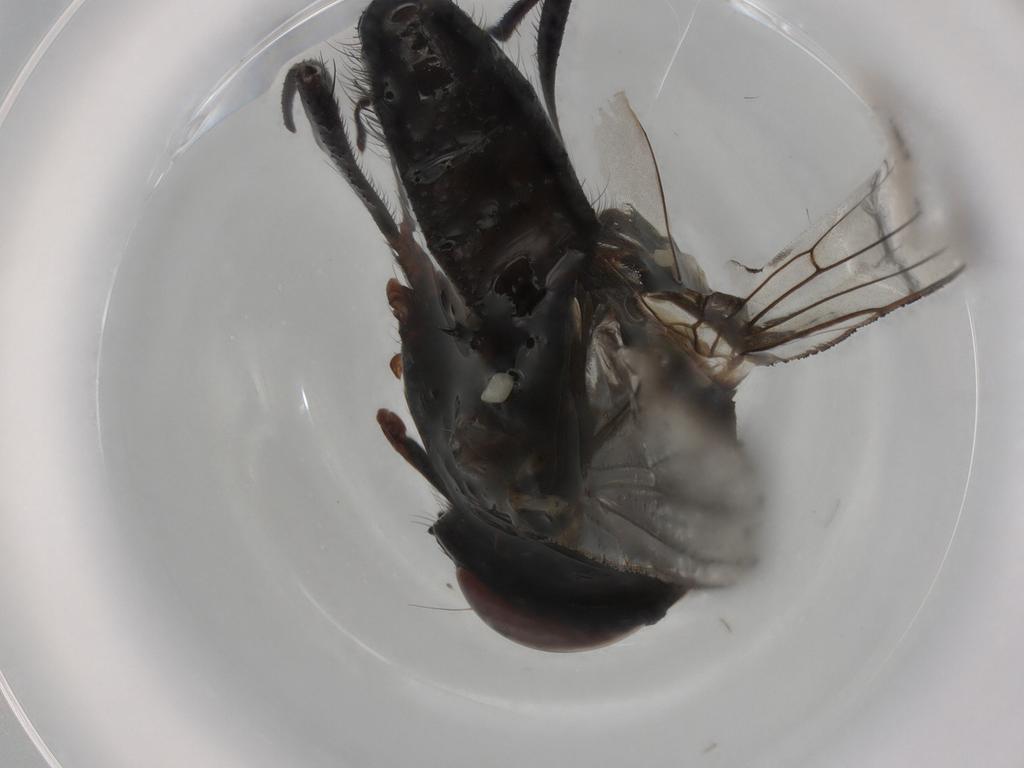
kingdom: Animalia
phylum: Arthropoda
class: Insecta
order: Diptera
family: Anthomyiidae
